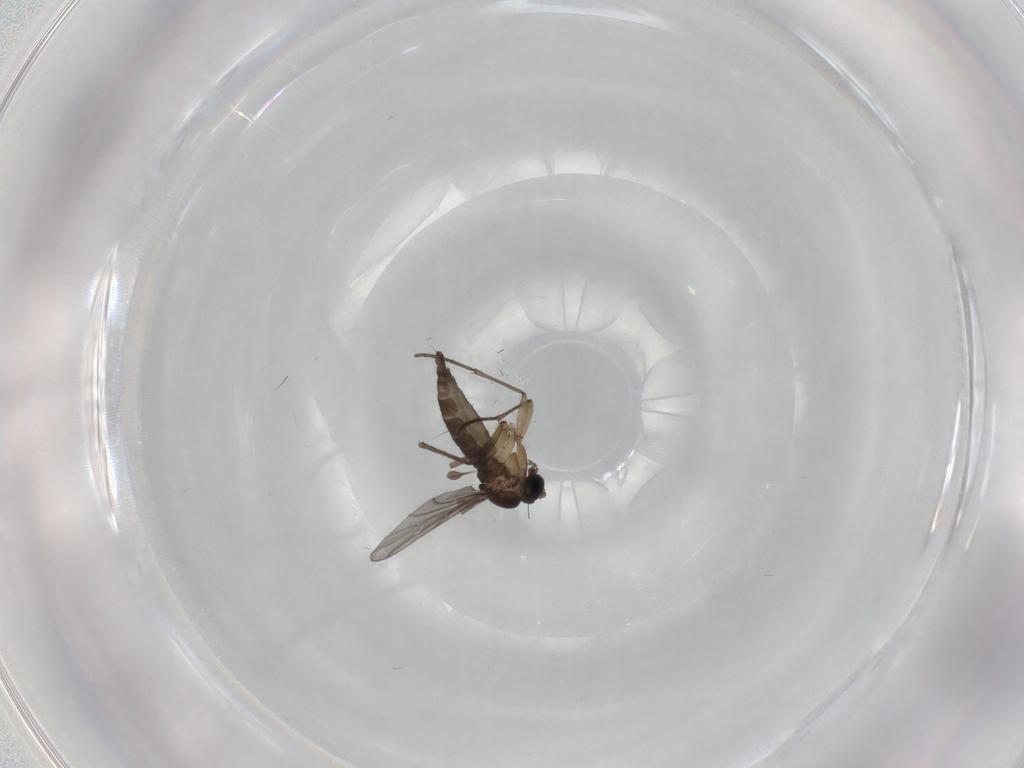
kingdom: Animalia
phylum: Arthropoda
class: Insecta
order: Diptera
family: Sciaridae
